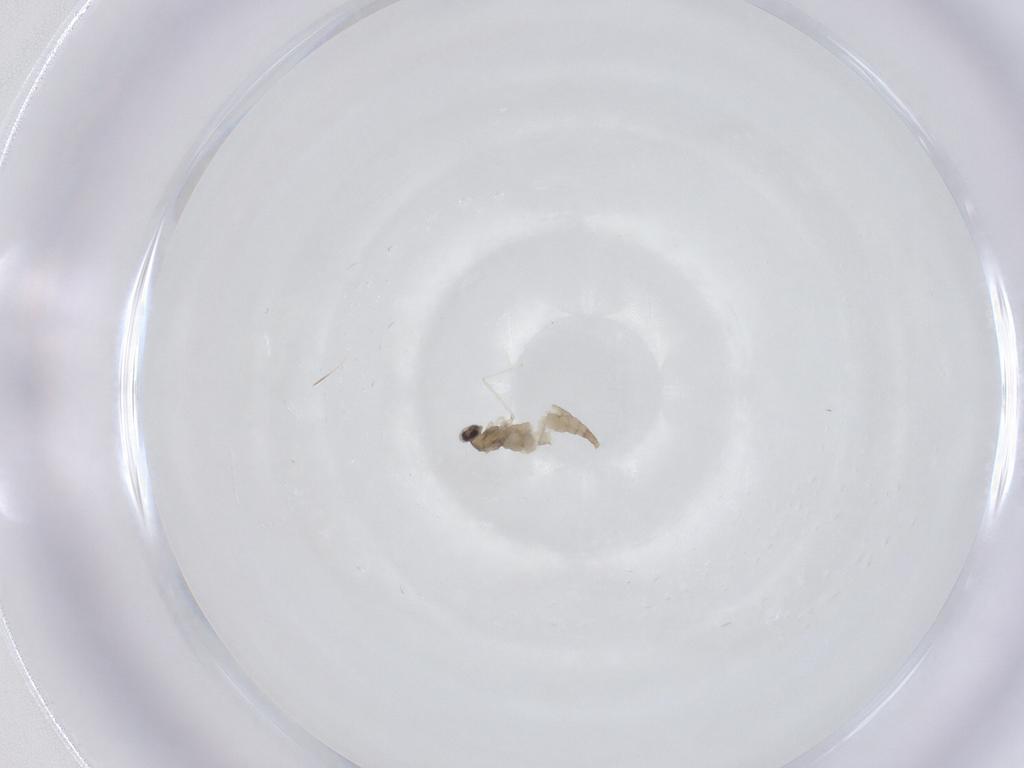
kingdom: Animalia
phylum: Arthropoda
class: Insecta
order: Diptera
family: Cecidomyiidae
